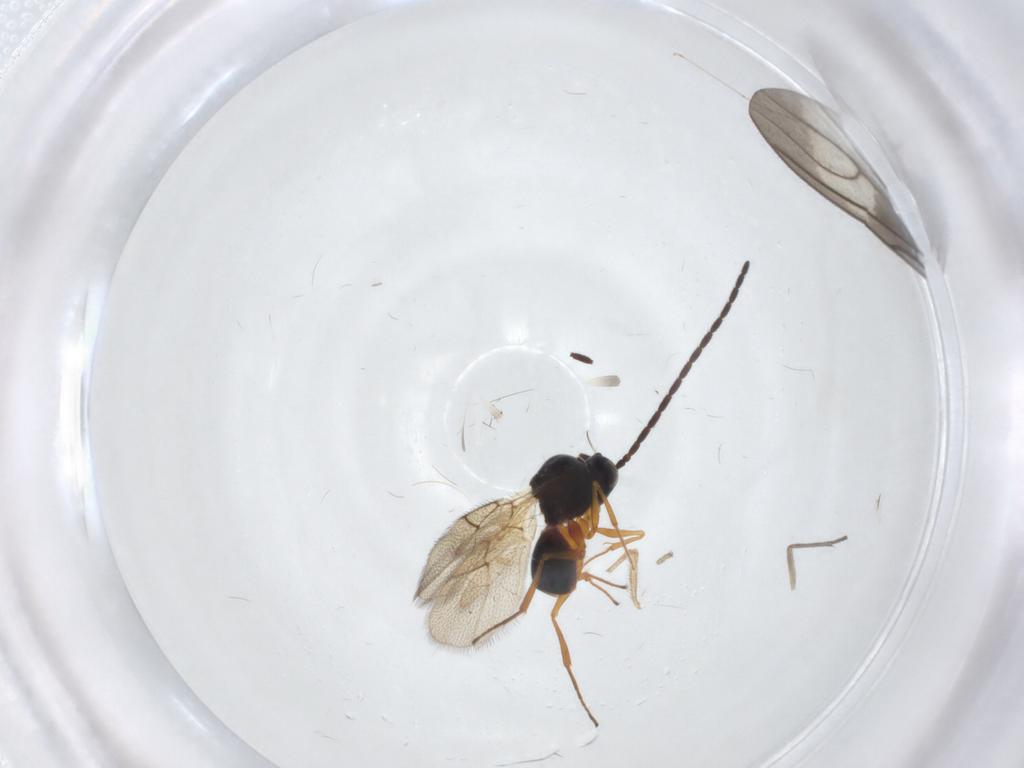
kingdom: Animalia
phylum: Arthropoda
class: Insecta
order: Hymenoptera
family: Figitidae
